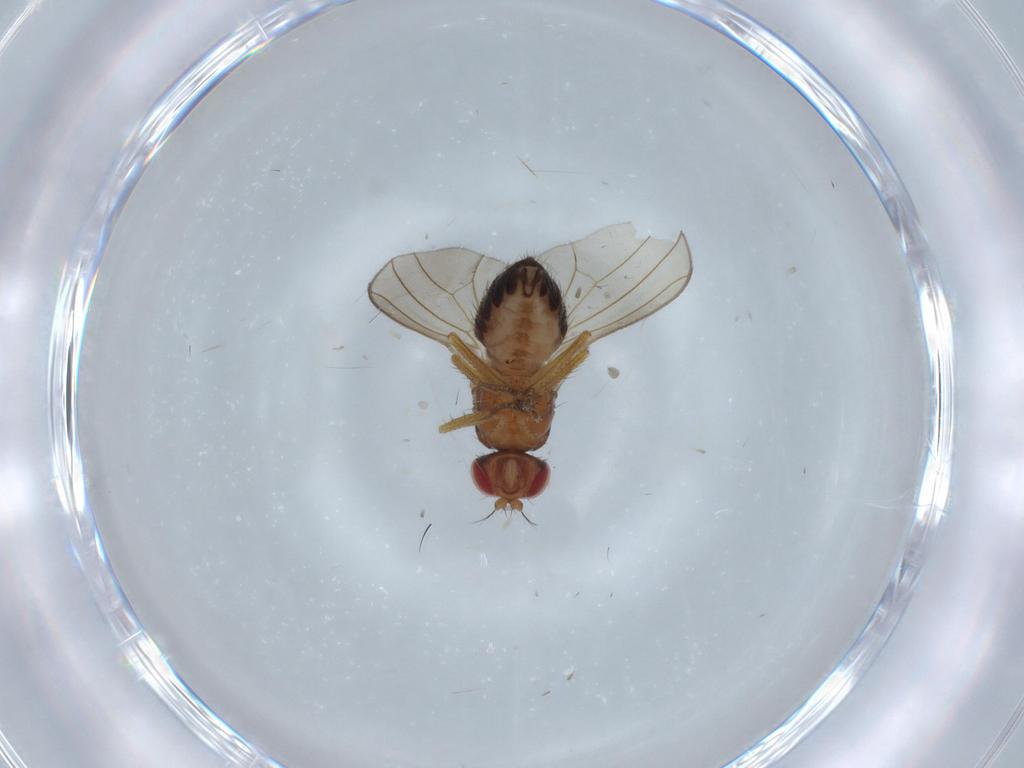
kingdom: Animalia
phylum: Arthropoda
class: Insecta
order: Diptera
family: Drosophilidae
